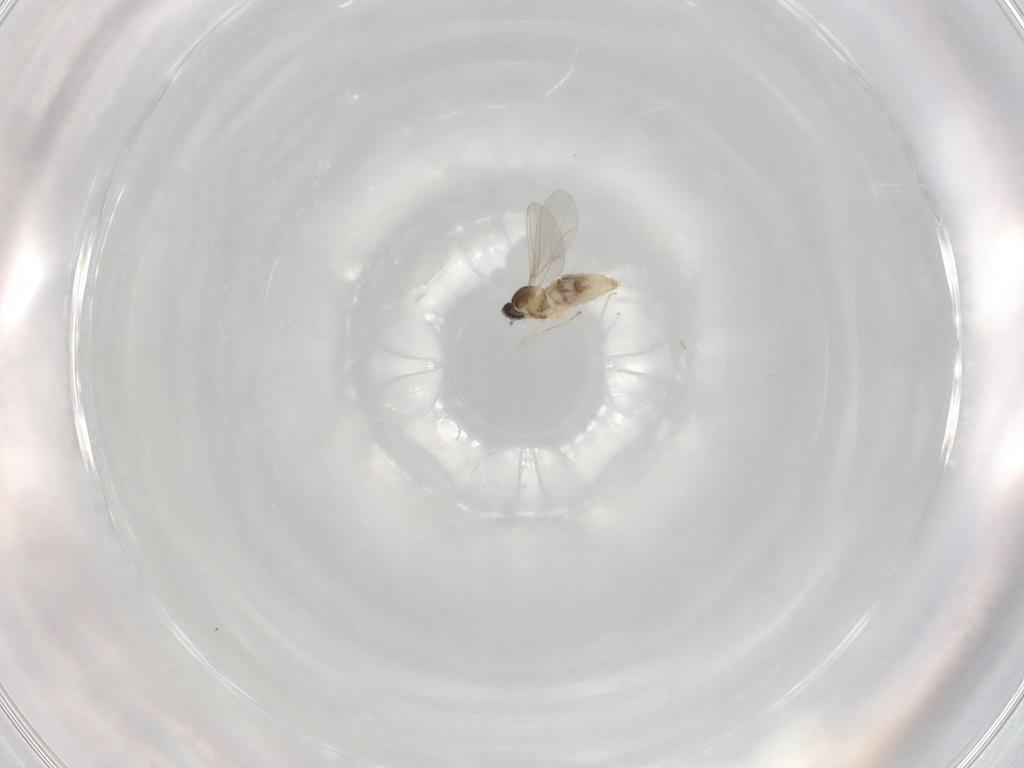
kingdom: Animalia
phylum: Arthropoda
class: Insecta
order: Diptera
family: Cecidomyiidae
